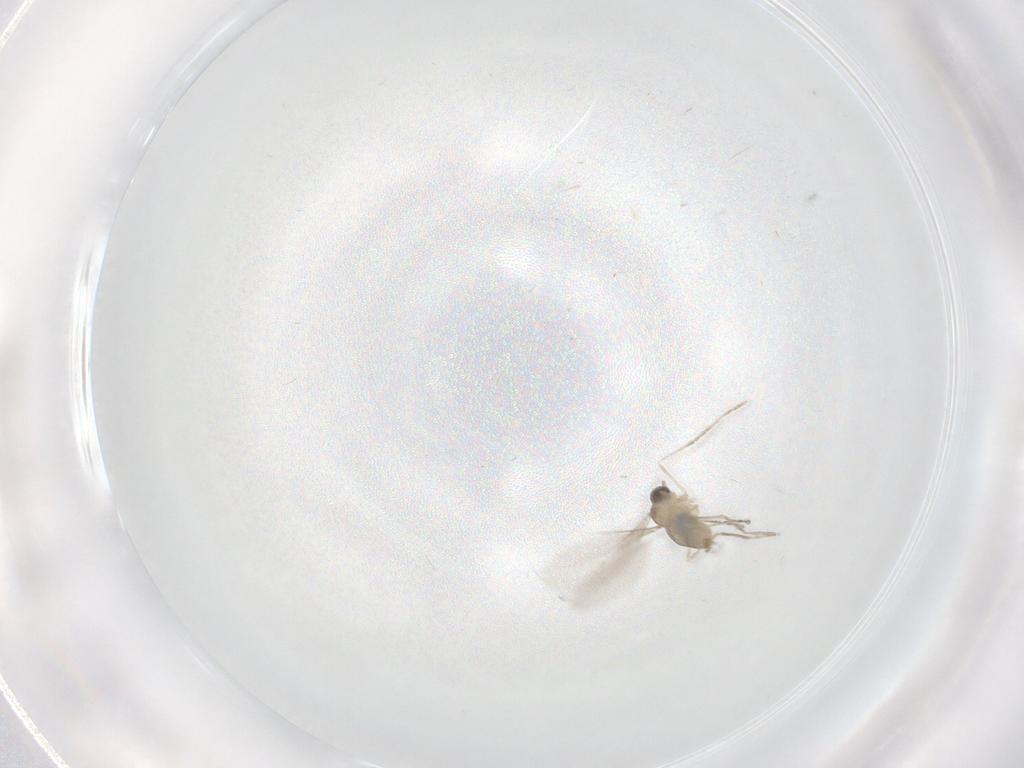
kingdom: Animalia
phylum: Arthropoda
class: Insecta
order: Diptera
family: Cecidomyiidae
